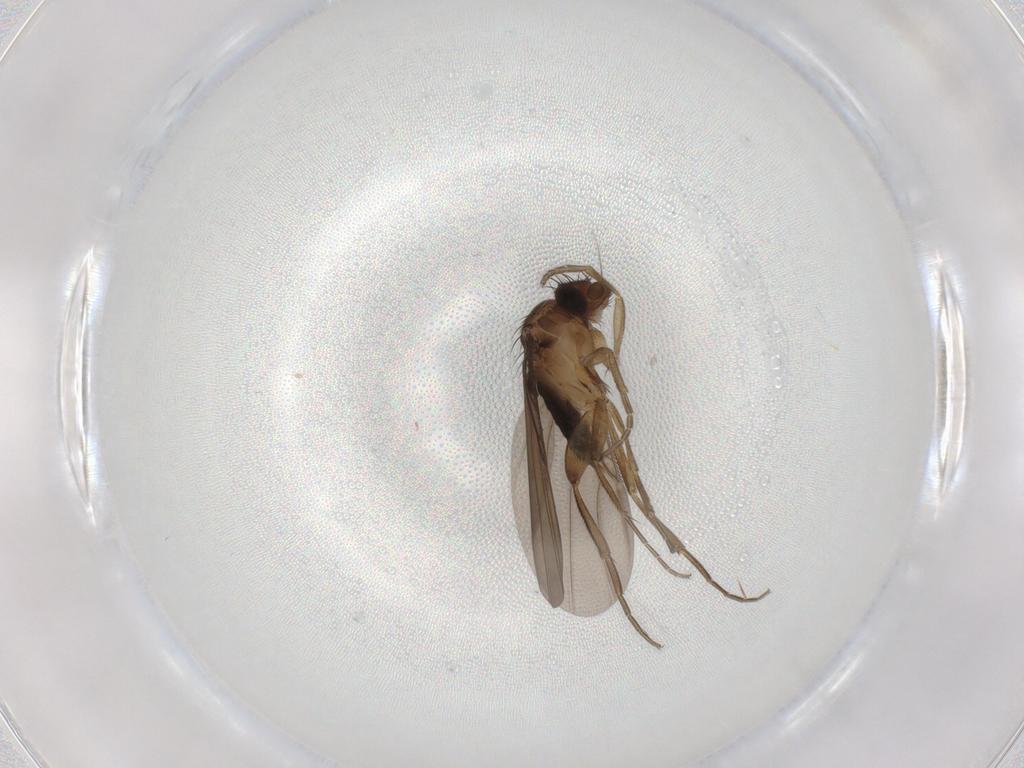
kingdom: Animalia
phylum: Arthropoda
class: Insecta
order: Diptera
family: Phoridae
